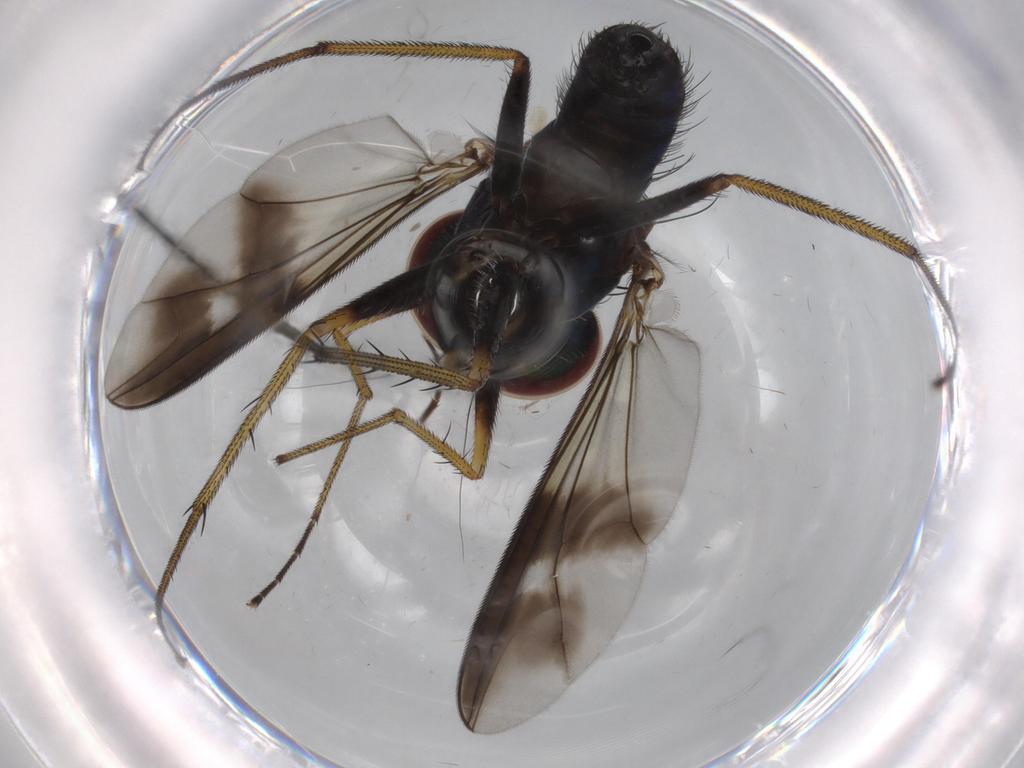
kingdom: Animalia
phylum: Arthropoda
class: Insecta
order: Diptera
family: Dolichopodidae
